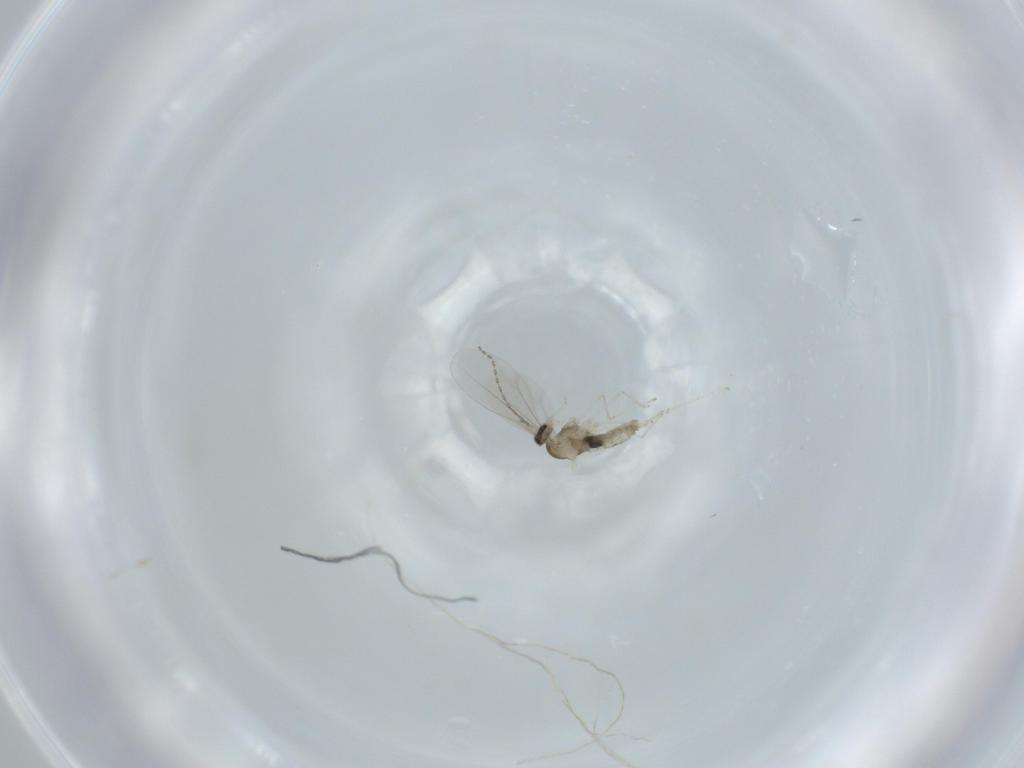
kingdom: Animalia
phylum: Arthropoda
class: Insecta
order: Diptera
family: Cecidomyiidae
